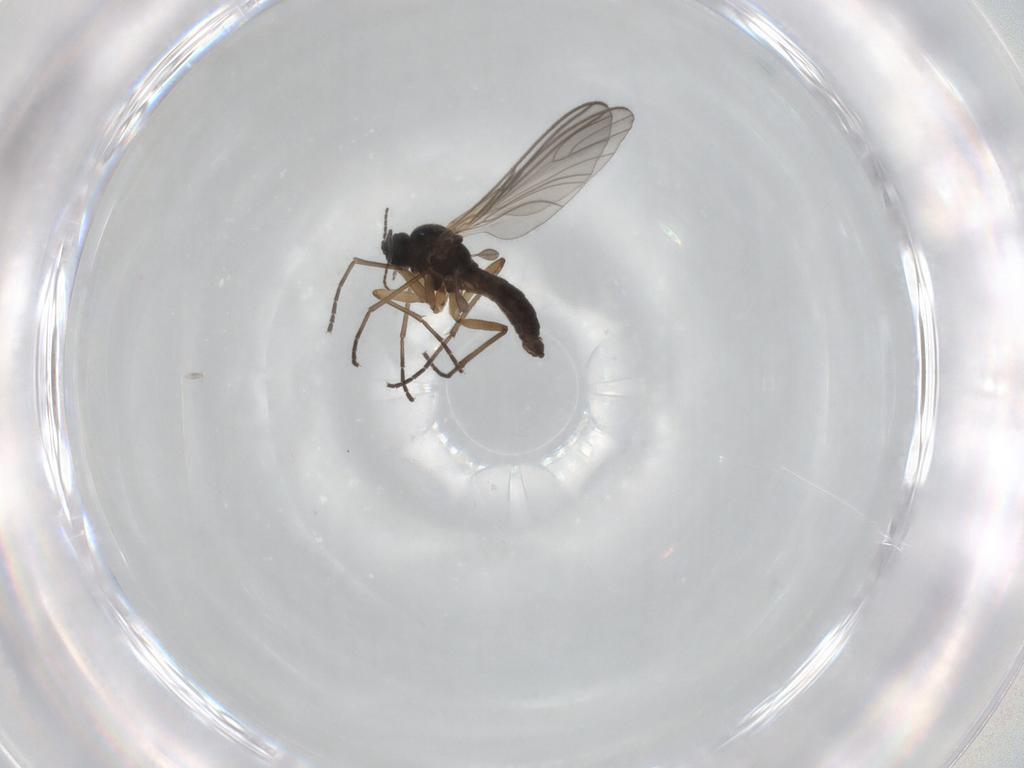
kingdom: Animalia
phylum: Arthropoda
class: Insecta
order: Diptera
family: Sciaridae
